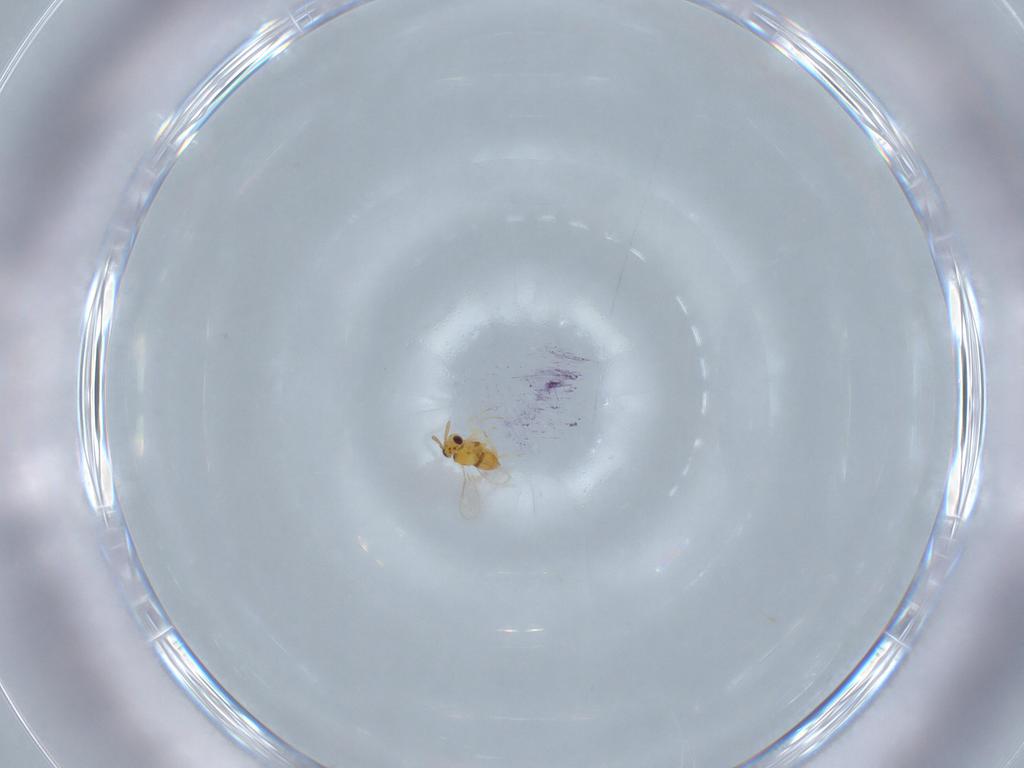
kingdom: Animalia
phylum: Arthropoda
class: Insecta
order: Hymenoptera
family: Aphelinidae
